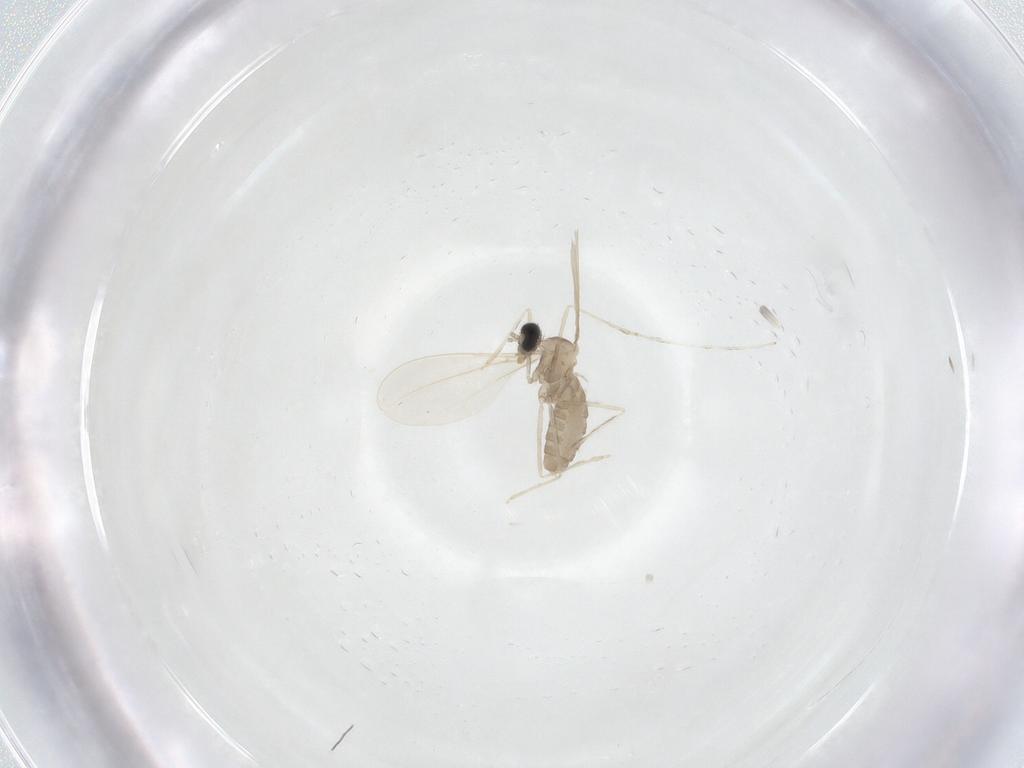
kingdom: Animalia
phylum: Arthropoda
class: Insecta
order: Diptera
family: Cecidomyiidae
